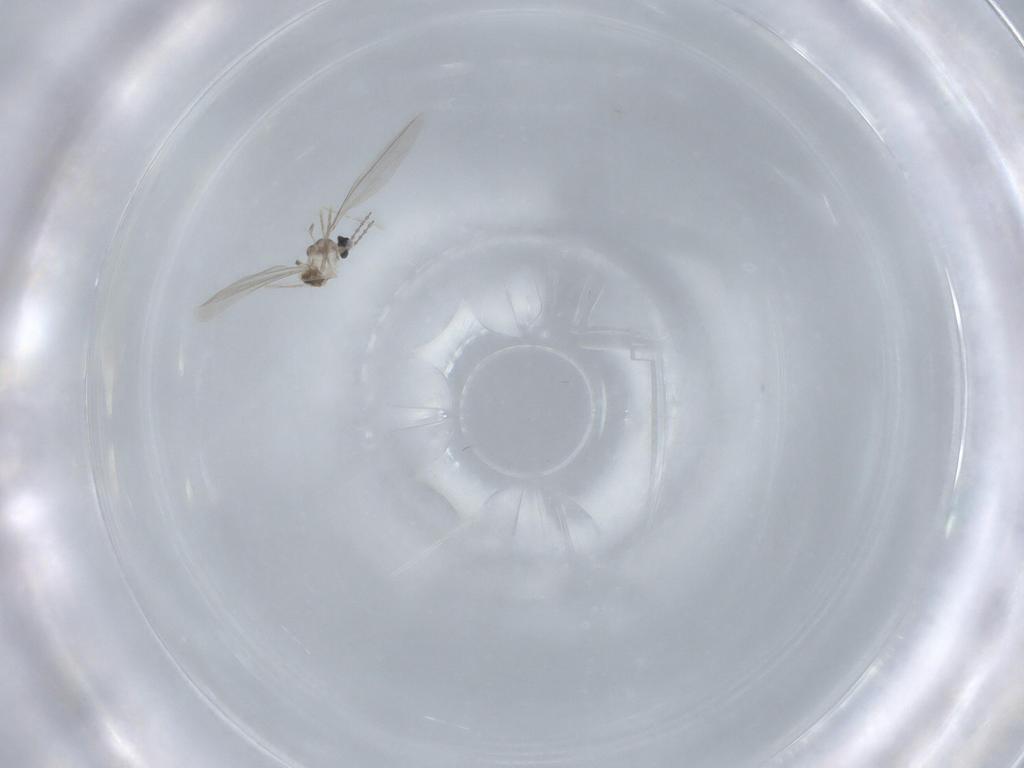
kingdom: Animalia
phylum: Arthropoda
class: Insecta
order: Diptera
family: Cecidomyiidae
